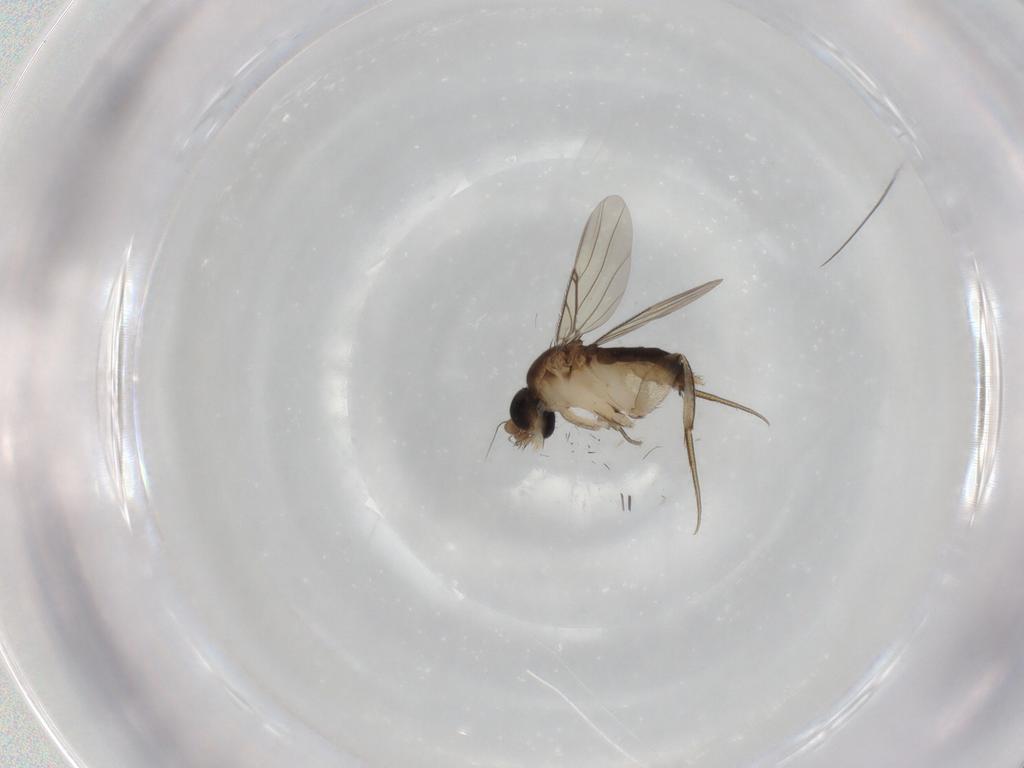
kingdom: Animalia
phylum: Arthropoda
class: Insecta
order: Diptera
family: Phoridae
